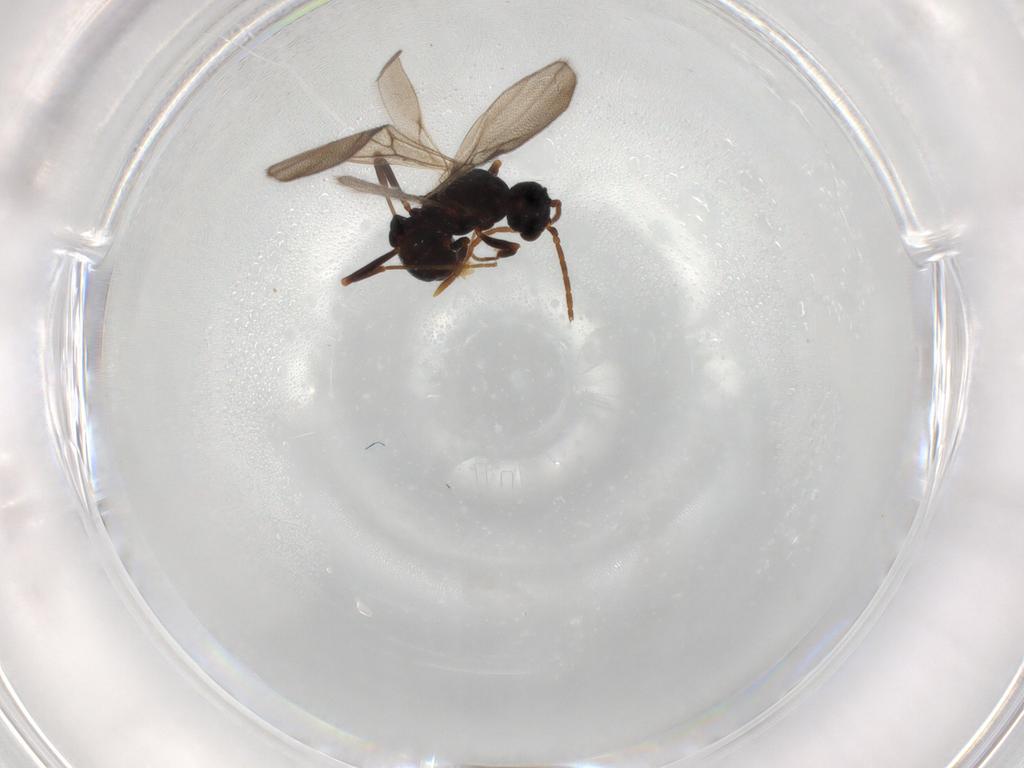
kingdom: Animalia
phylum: Arthropoda
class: Insecta
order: Hymenoptera
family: Formicidae
